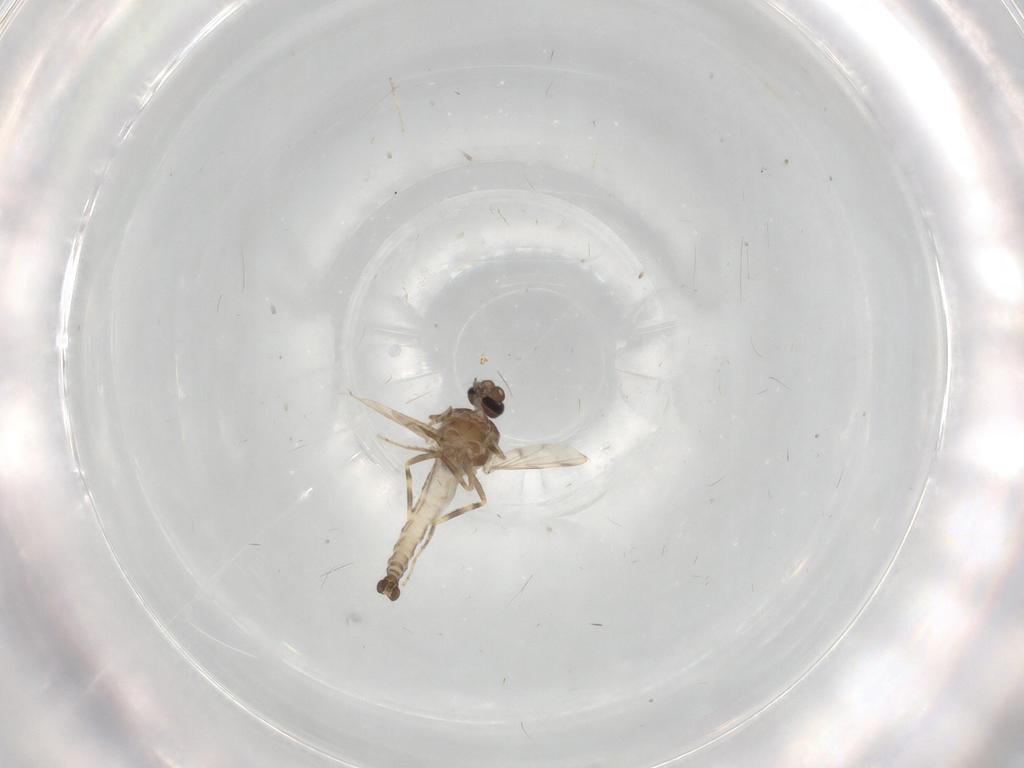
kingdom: Animalia
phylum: Arthropoda
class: Insecta
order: Diptera
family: Ceratopogonidae
